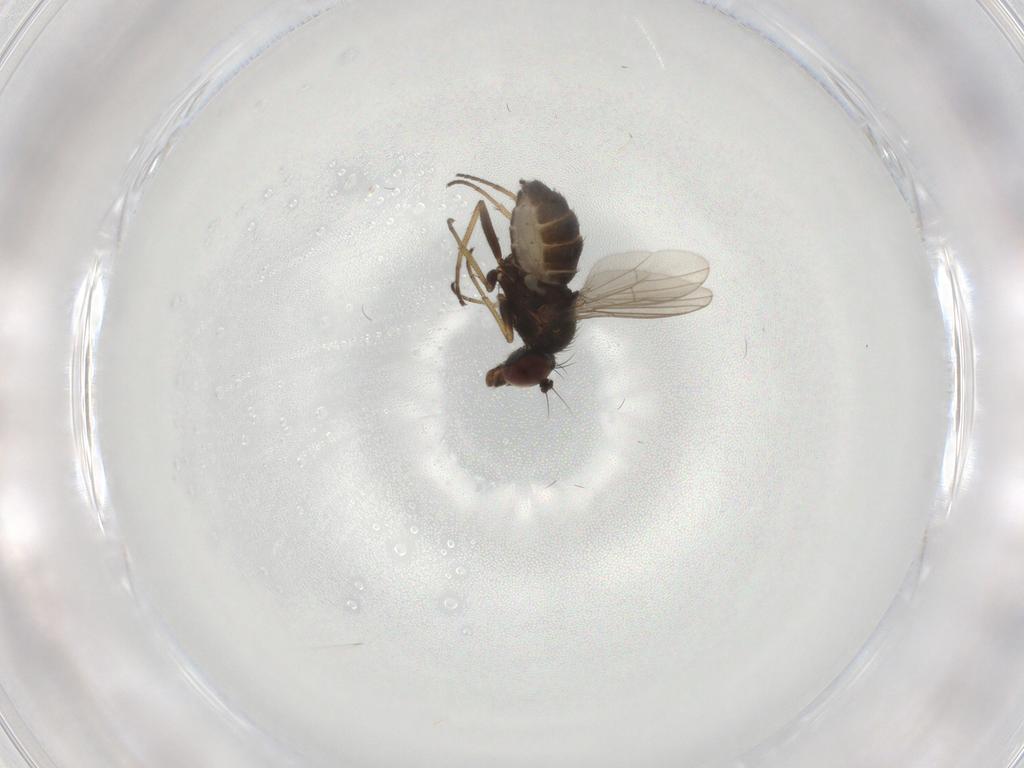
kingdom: Animalia
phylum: Arthropoda
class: Insecta
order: Diptera
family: Dolichopodidae
